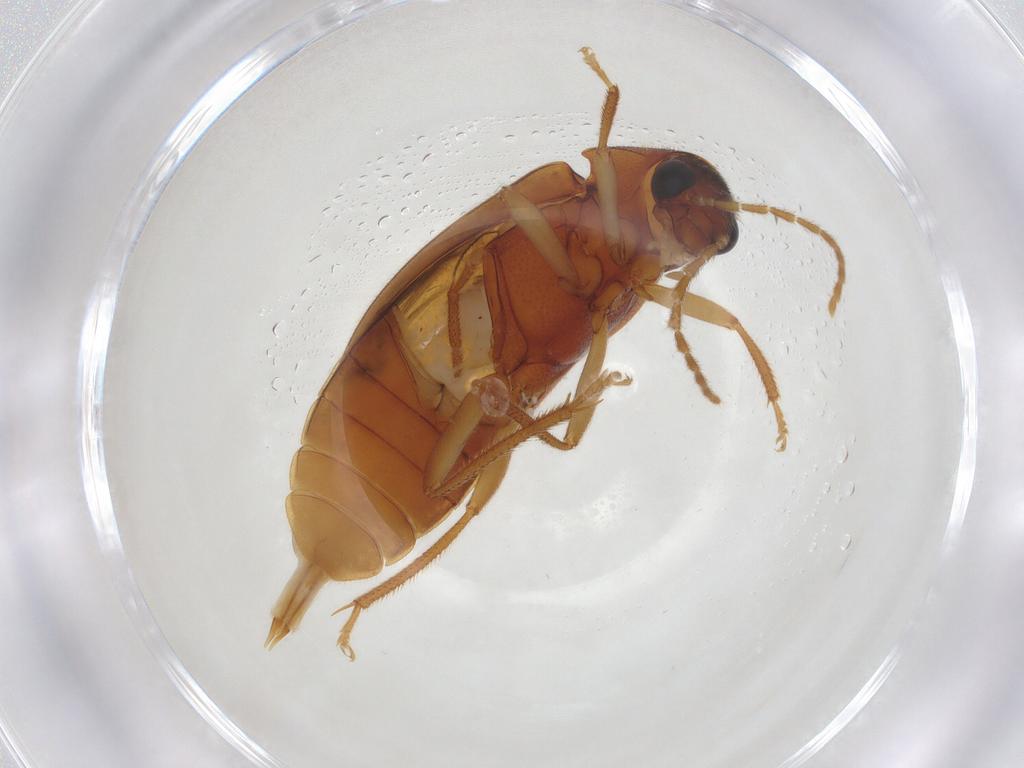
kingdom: Animalia
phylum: Arthropoda
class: Insecta
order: Coleoptera
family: Ptilodactylidae
